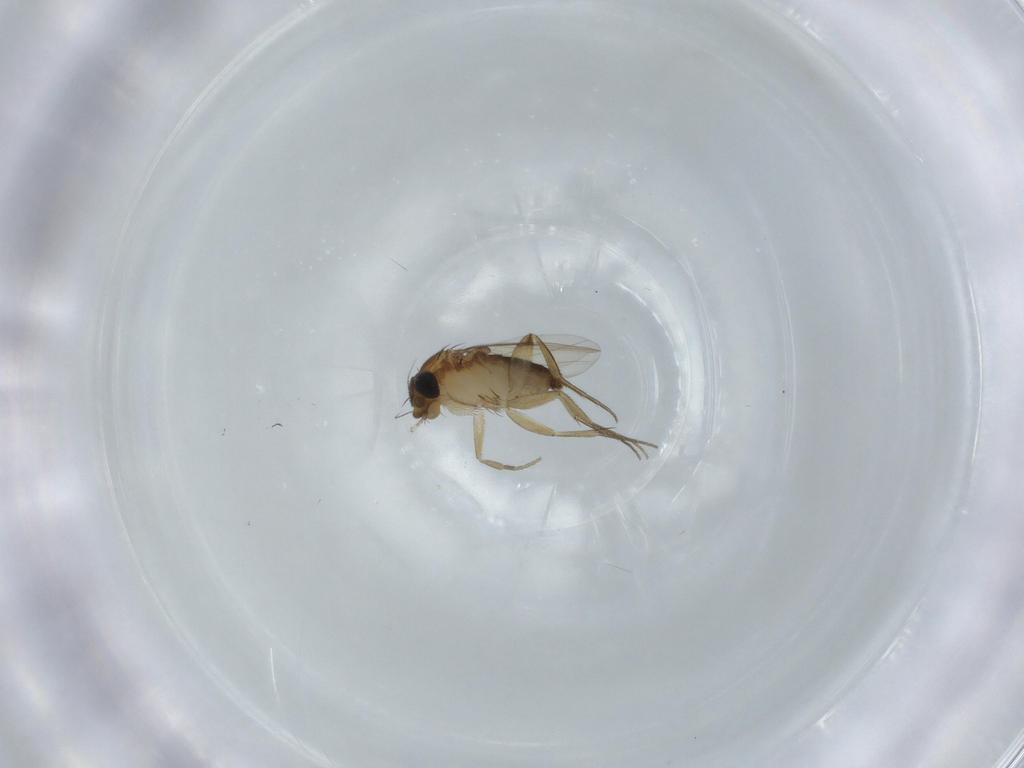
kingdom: Animalia
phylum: Arthropoda
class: Insecta
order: Diptera
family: Phoridae
